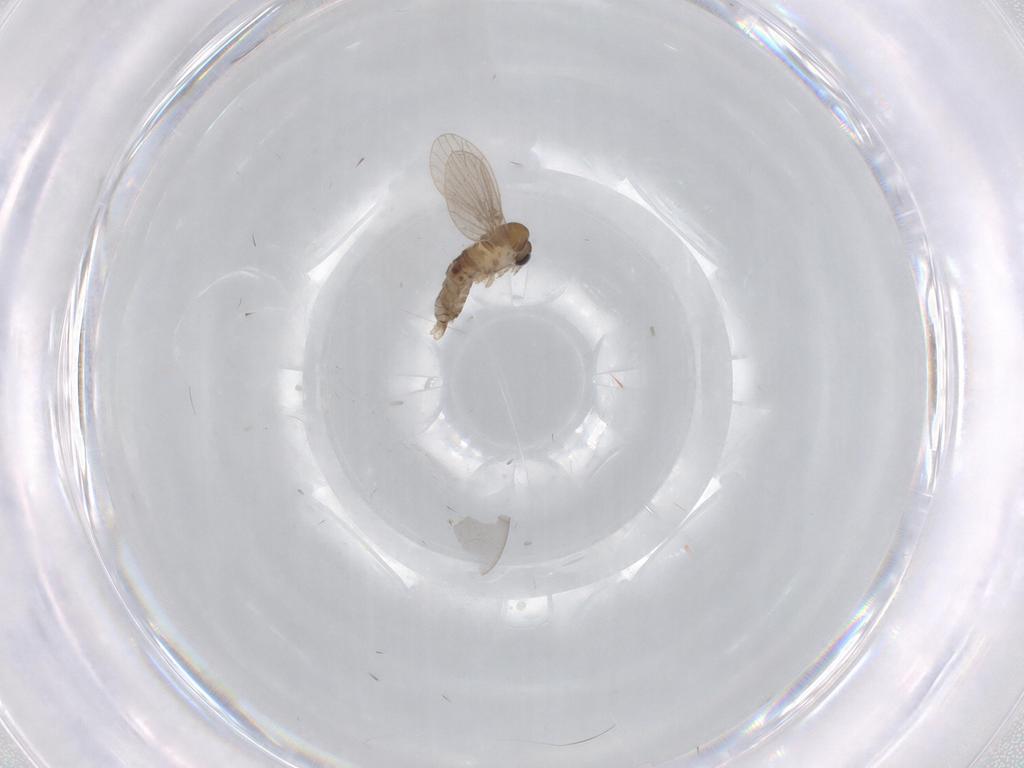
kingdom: Animalia
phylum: Arthropoda
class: Insecta
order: Diptera
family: Psychodidae
